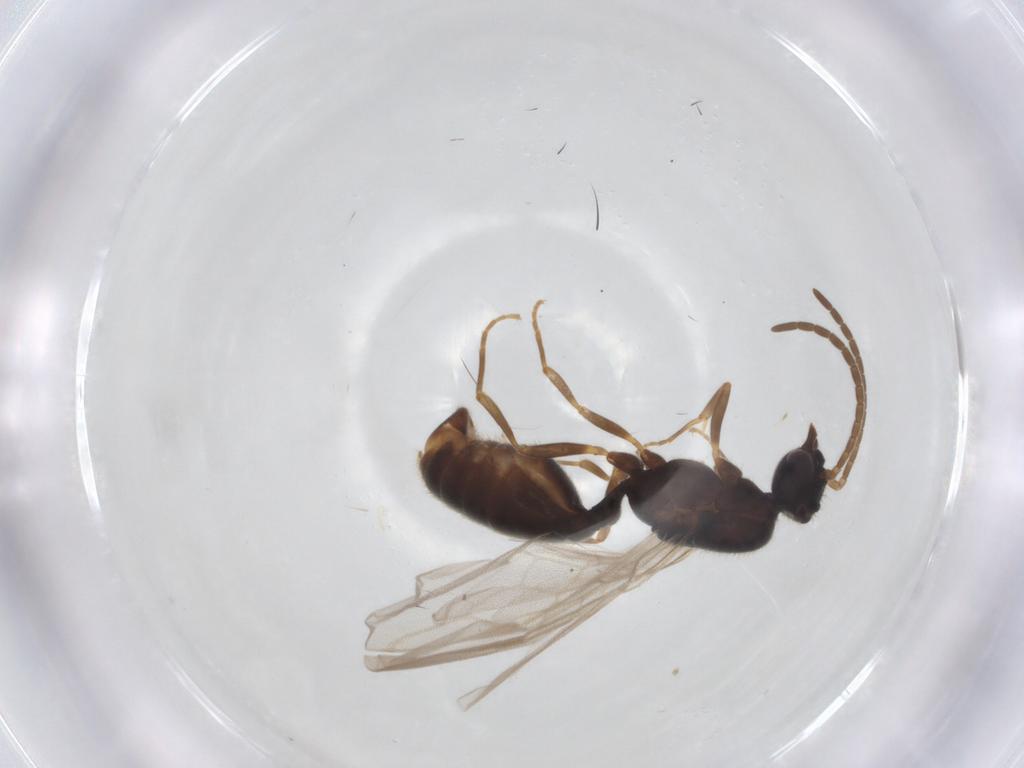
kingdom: Animalia
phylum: Arthropoda
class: Insecta
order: Hymenoptera
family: Formicidae
